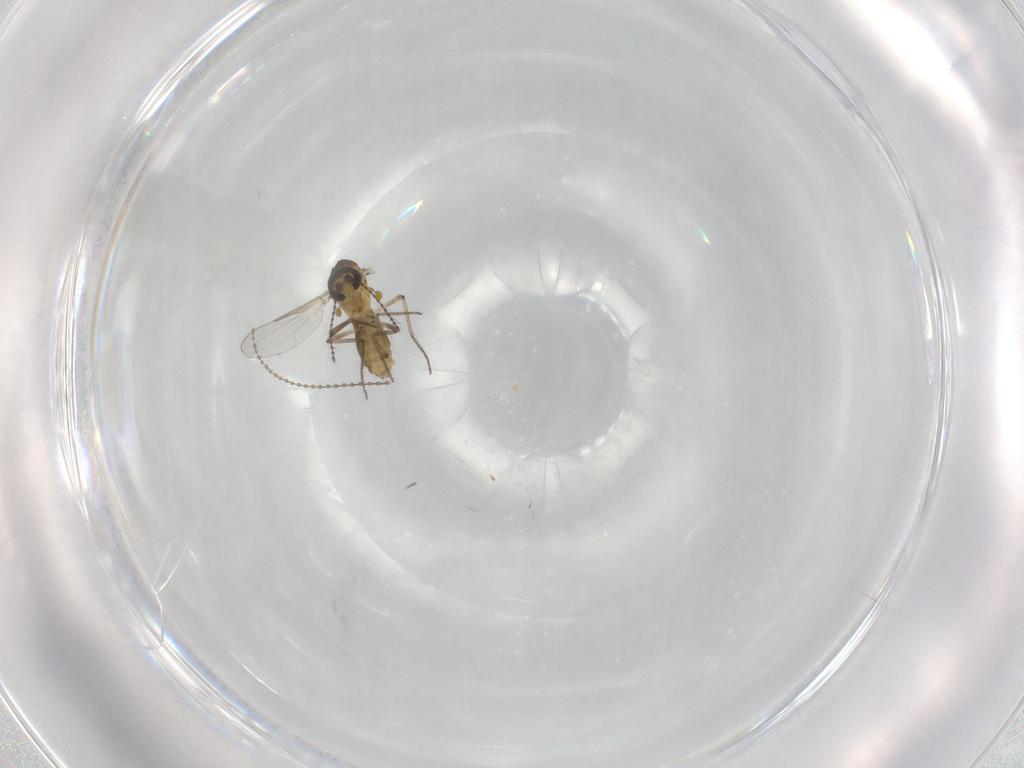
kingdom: Animalia
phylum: Arthropoda
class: Insecta
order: Diptera
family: Ceratopogonidae
